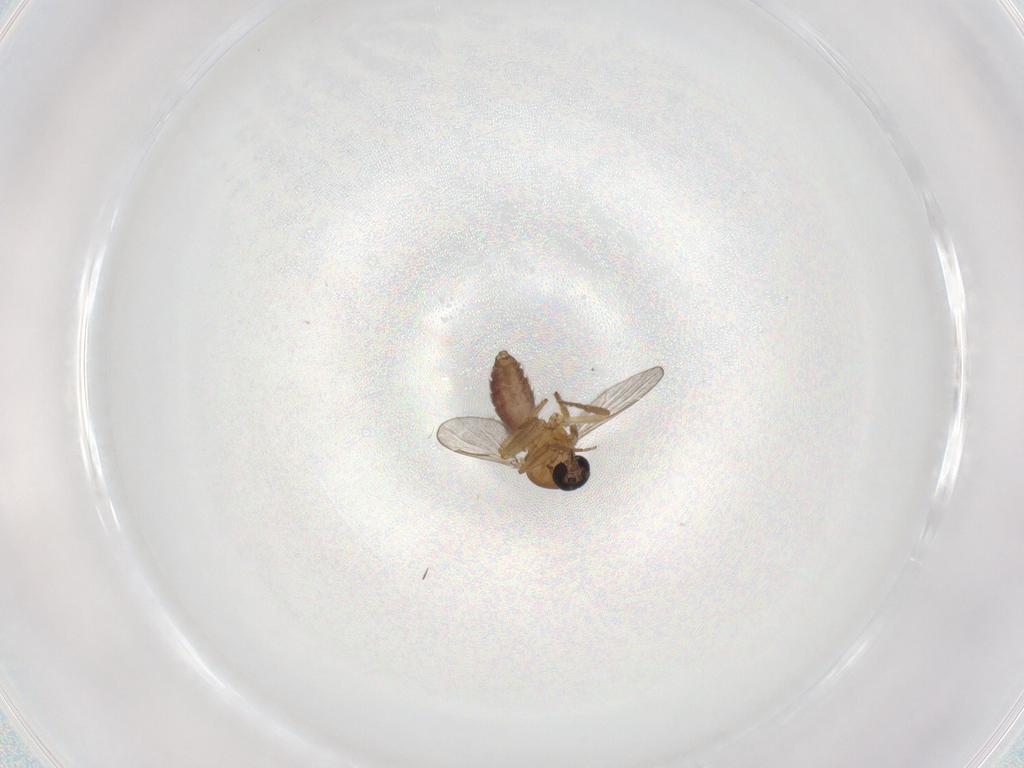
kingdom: Animalia
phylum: Arthropoda
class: Insecta
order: Diptera
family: Ceratopogonidae
